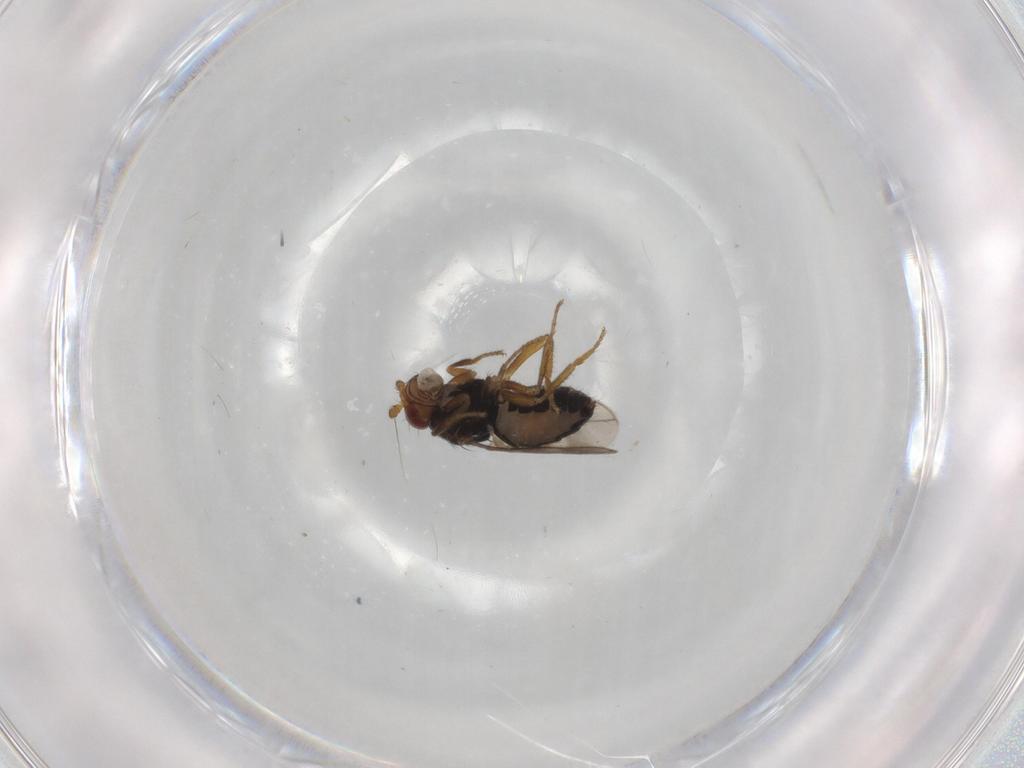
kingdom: Animalia
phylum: Arthropoda
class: Insecta
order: Diptera
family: Sphaeroceridae
